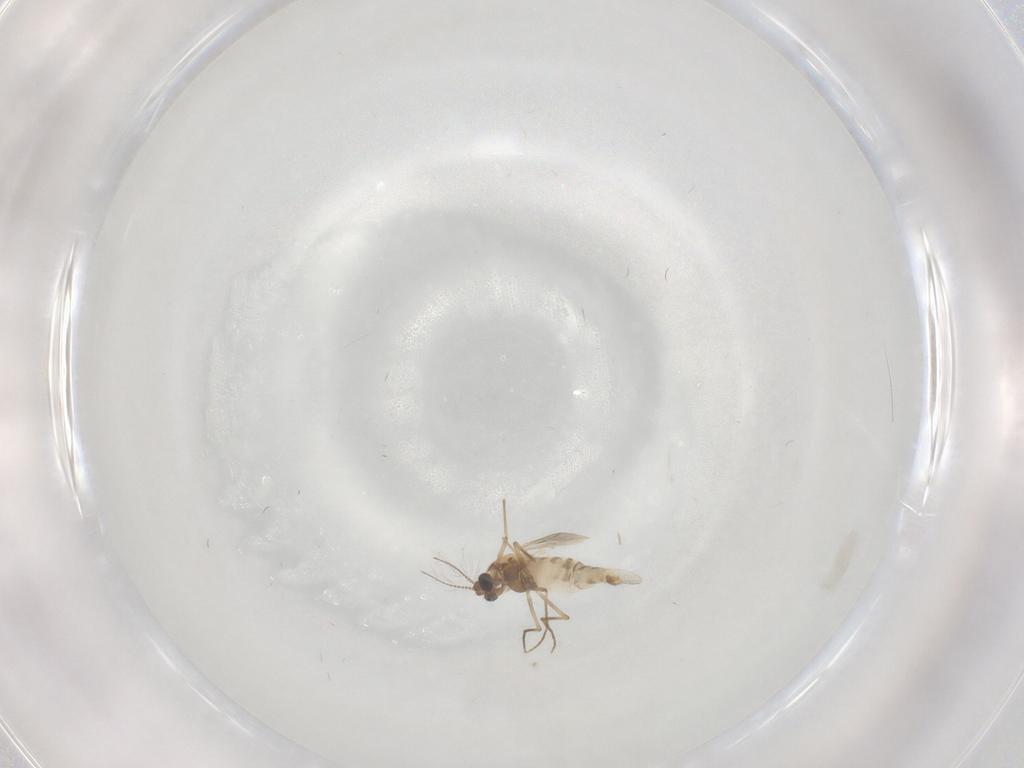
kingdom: Animalia
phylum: Arthropoda
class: Insecta
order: Diptera
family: Chironomidae
